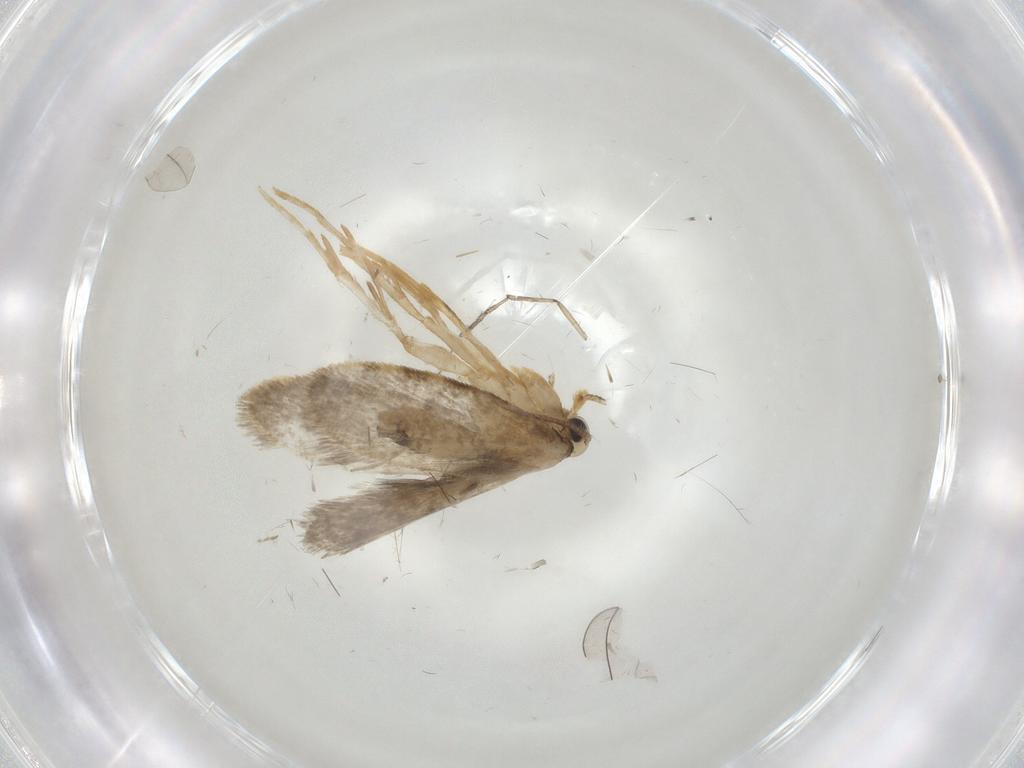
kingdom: Animalia
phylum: Arthropoda
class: Insecta
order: Lepidoptera
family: Psychidae
